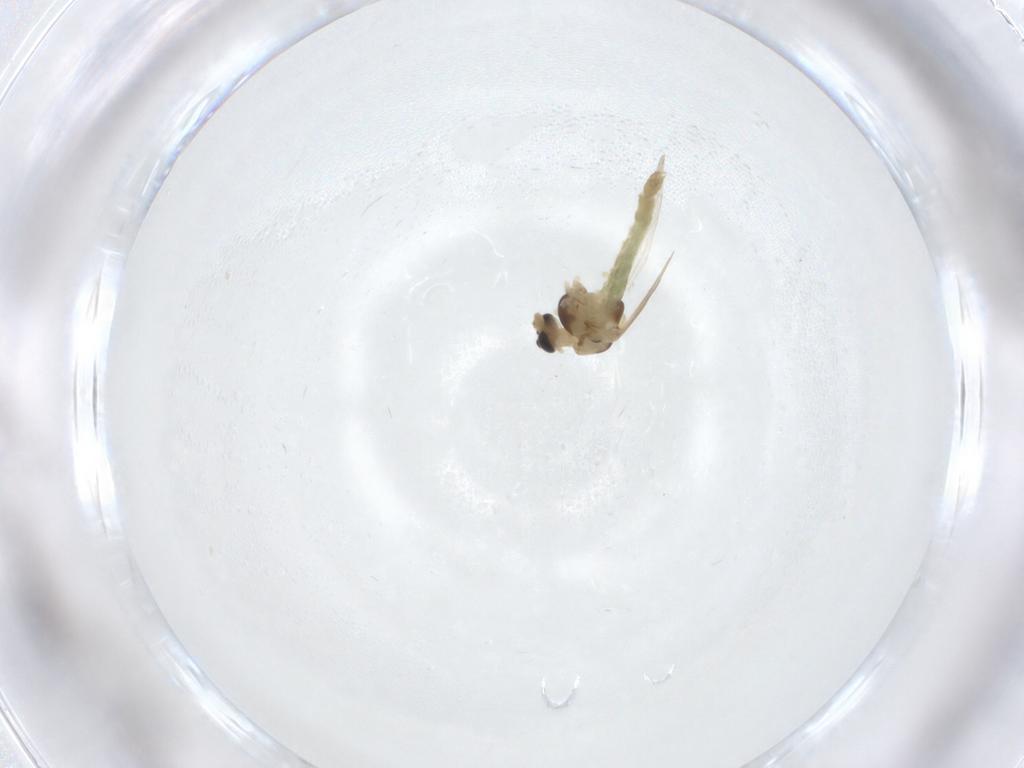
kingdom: Animalia
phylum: Arthropoda
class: Insecta
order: Diptera
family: Chironomidae
